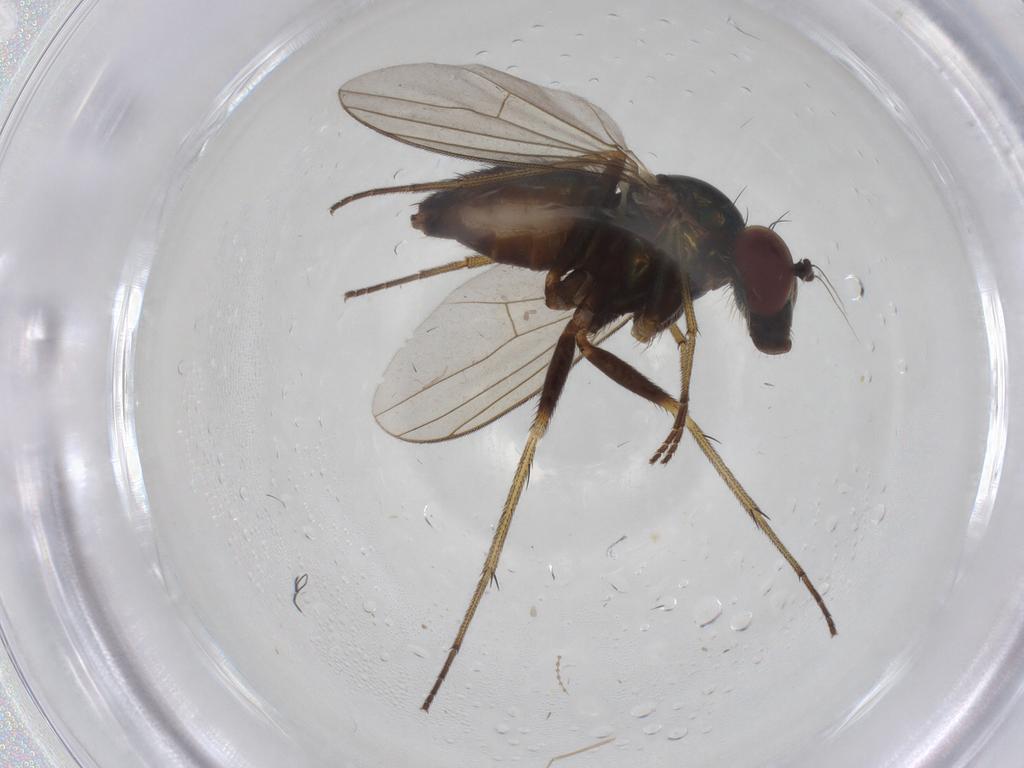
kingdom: Animalia
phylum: Arthropoda
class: Insecta
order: Diptera
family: Dolichopodidae
